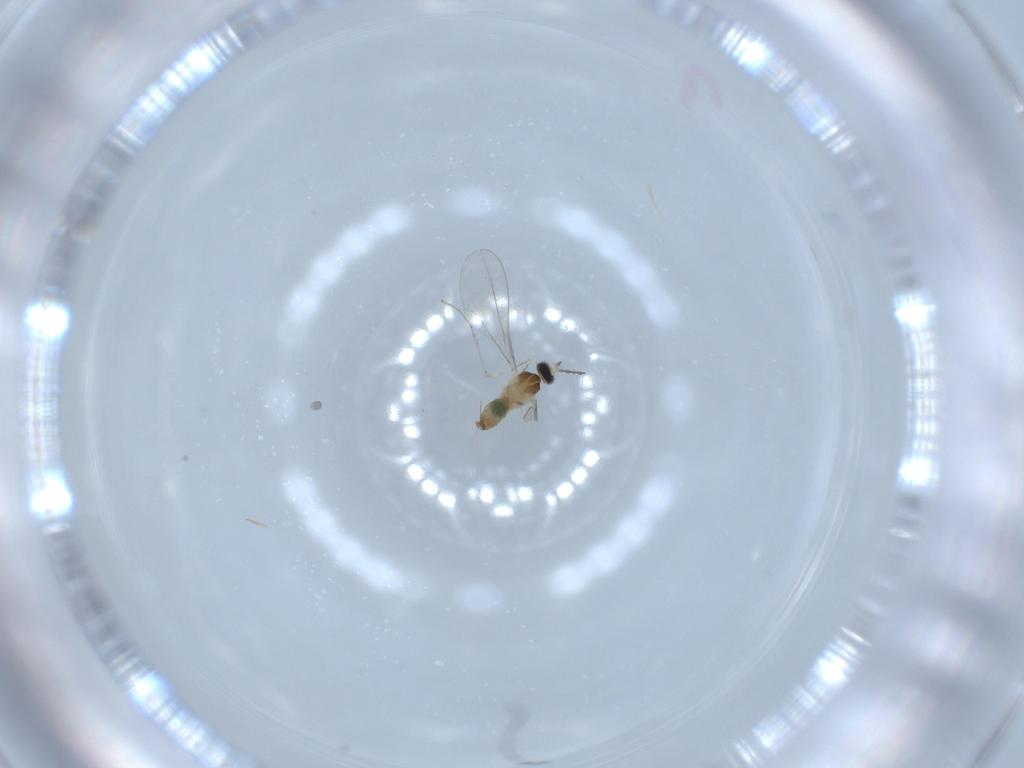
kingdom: Animalia
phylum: Arthropoda
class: Insecta
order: Diptera
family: Cecidomyiidae
